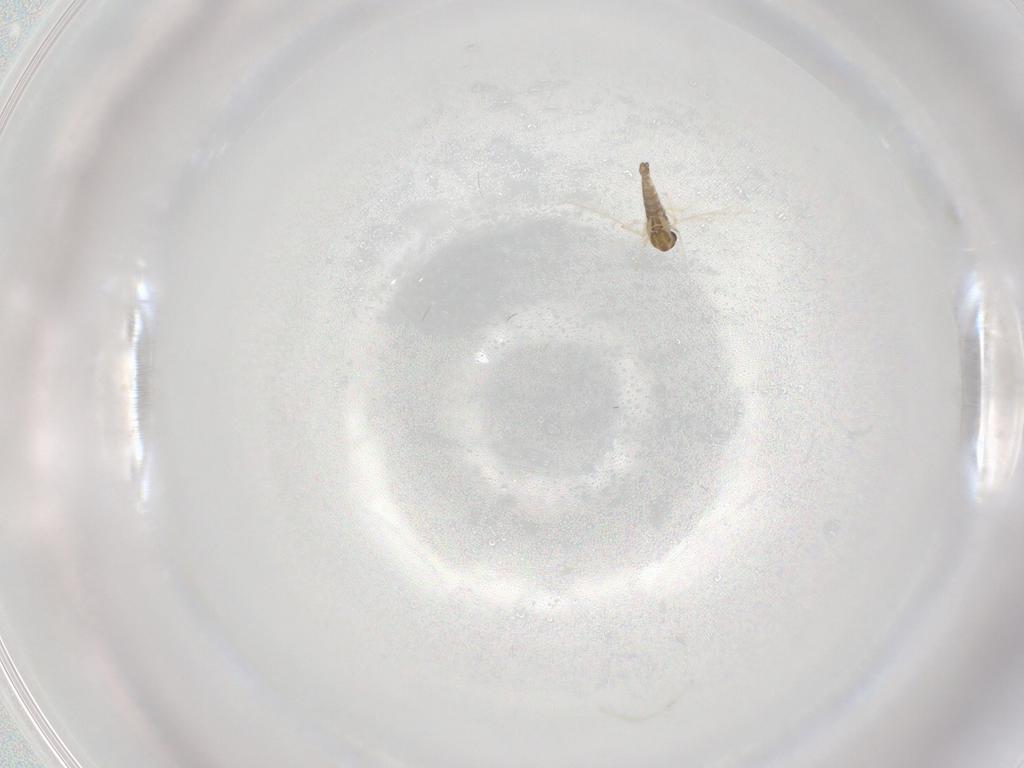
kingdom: Animalia
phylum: Arthropoda
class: Insecta
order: Diptera
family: Chironomidae
